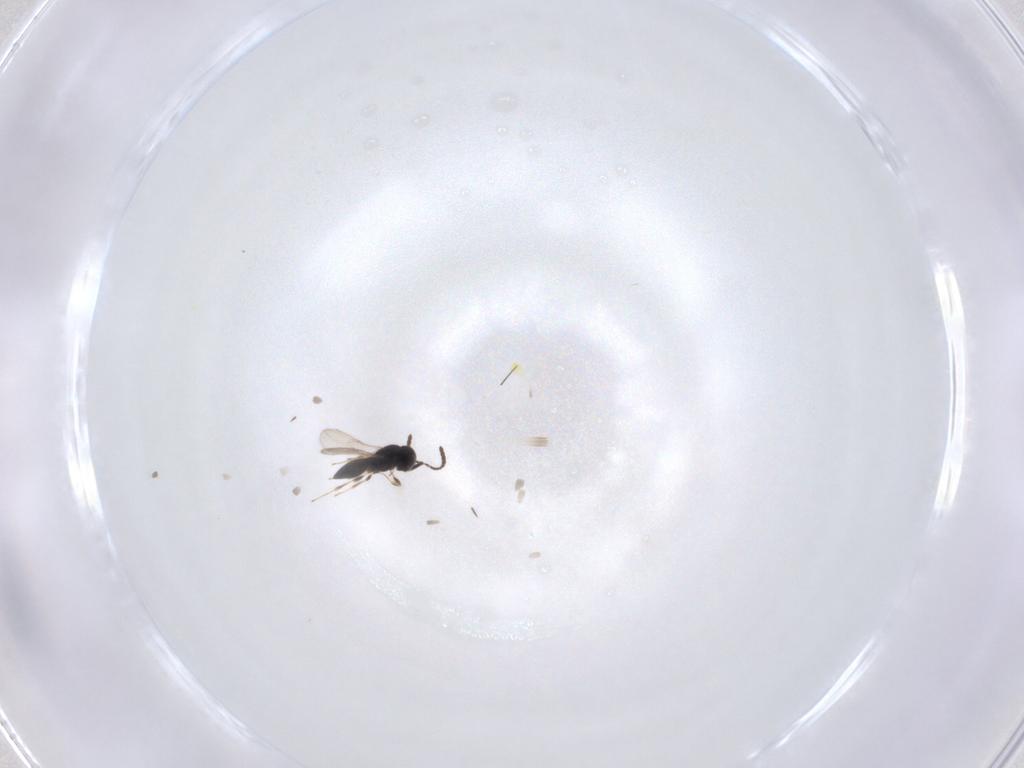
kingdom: Animalia
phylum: Arthropoda
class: Insecta
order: Hymenoptera
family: Scelionidae
